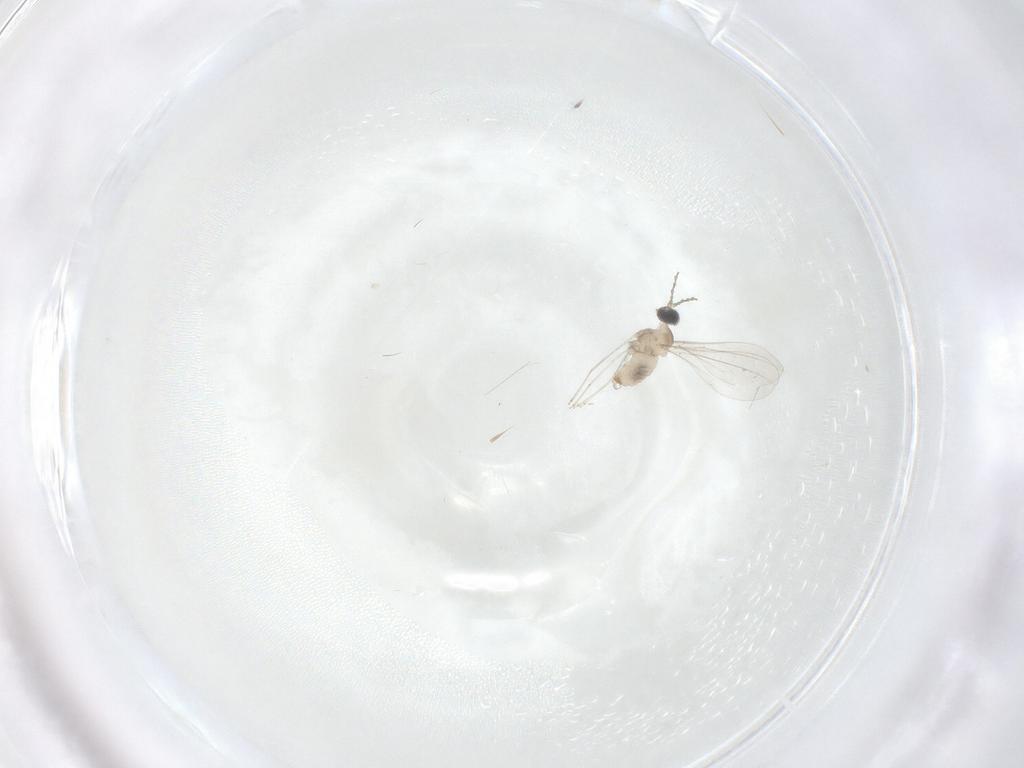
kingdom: Animalia
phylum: Arthropoda
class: Insecta
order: Diptera
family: Cecidomyiidae
